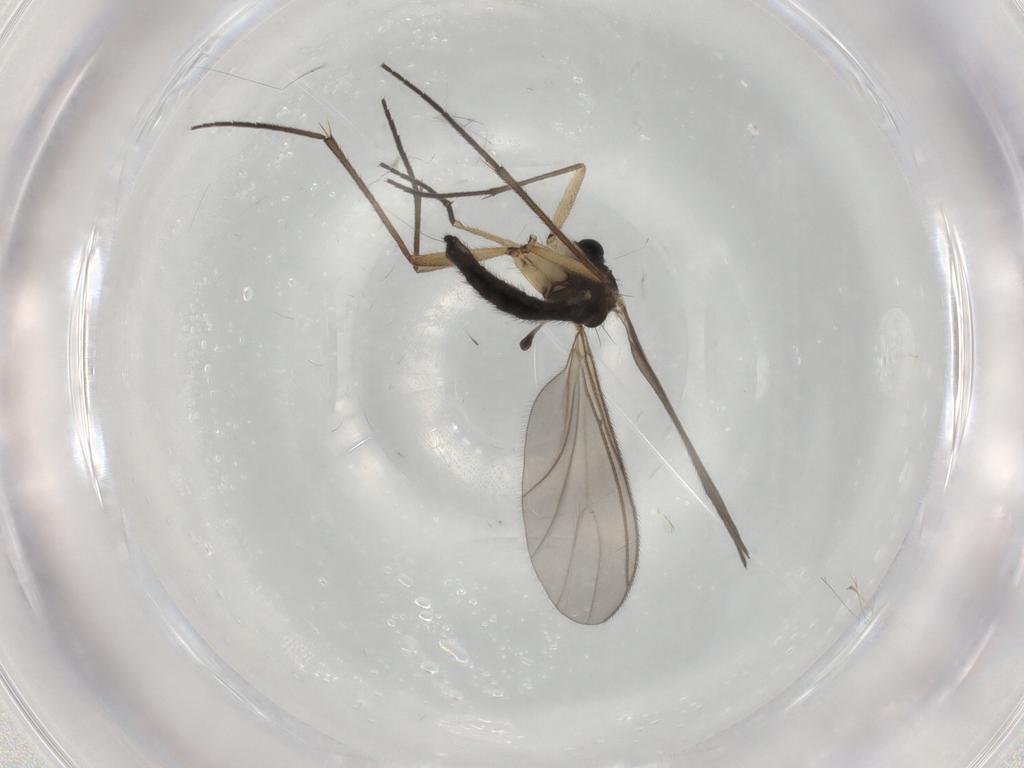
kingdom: Animalia
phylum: Arthropoda
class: Insecta
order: Diptera
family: Sciaridae
